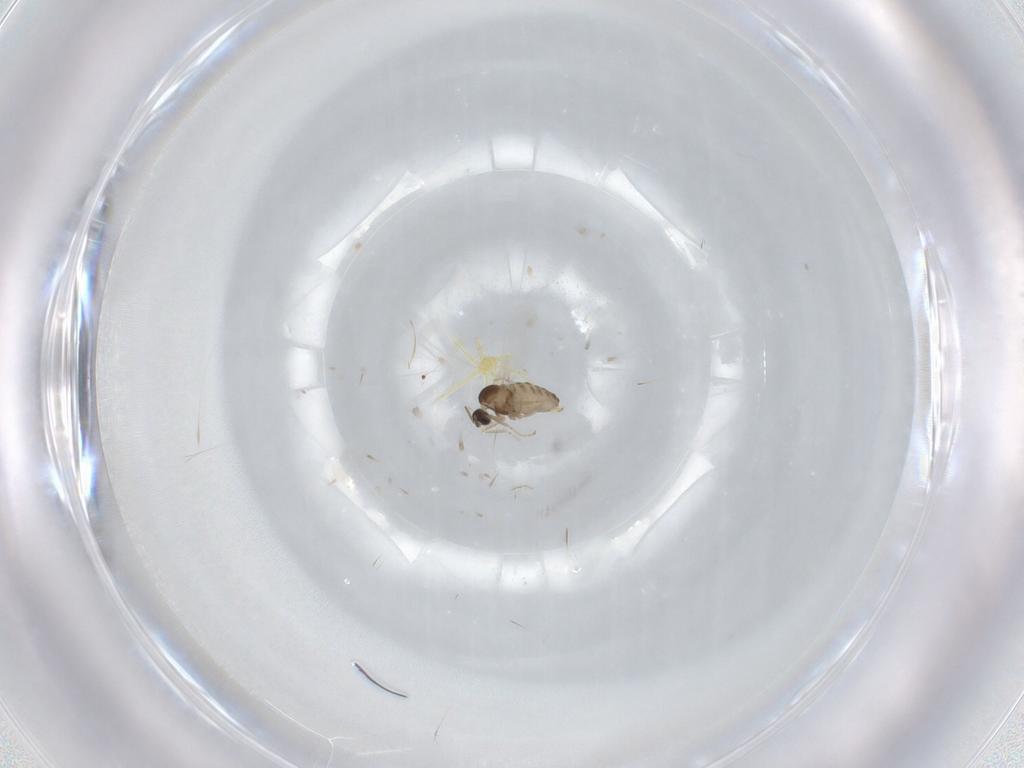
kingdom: Animalia
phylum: Arthropoda
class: Insecta
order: Diptera
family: Cecidomyiidae
